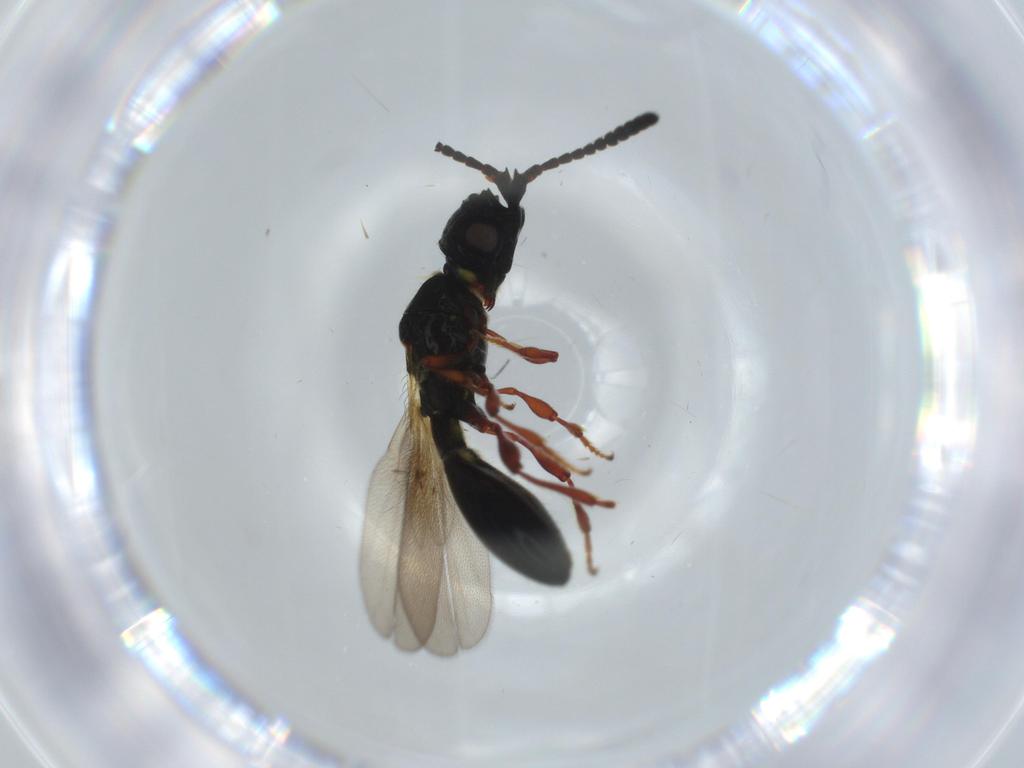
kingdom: Animalia
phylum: Arthropoda
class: Insecta
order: Hymenoptera
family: Diapriidae
